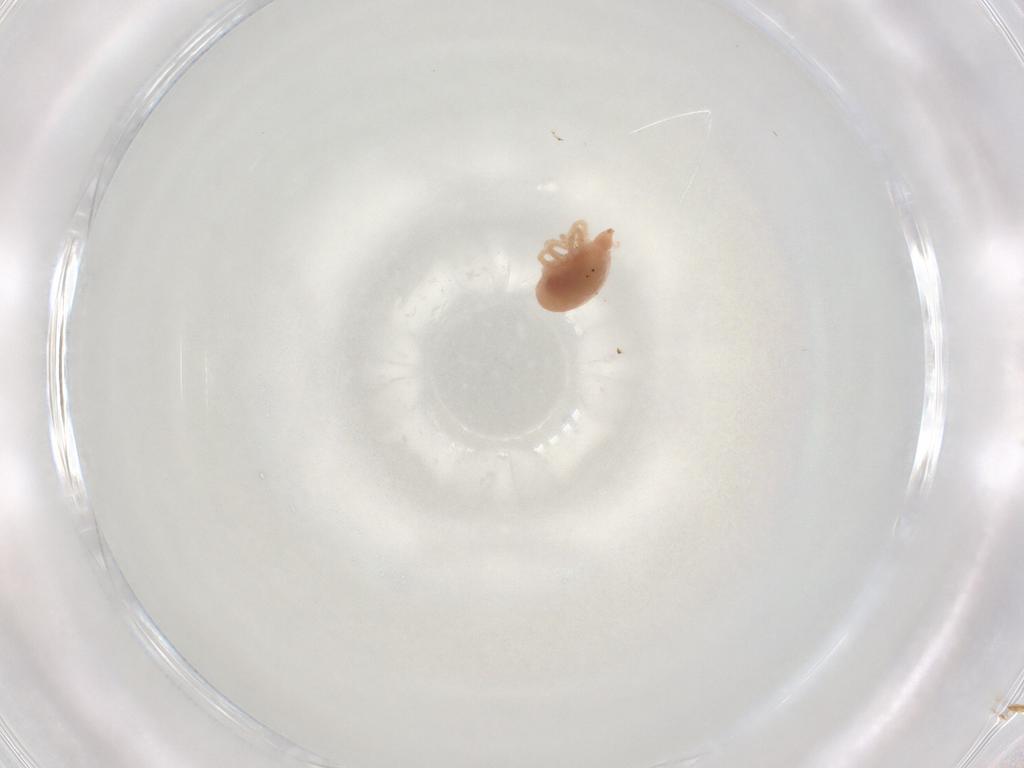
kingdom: Animalia
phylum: Arthropoda
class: Arachnida
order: Trombidiformes
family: Bdellidae
